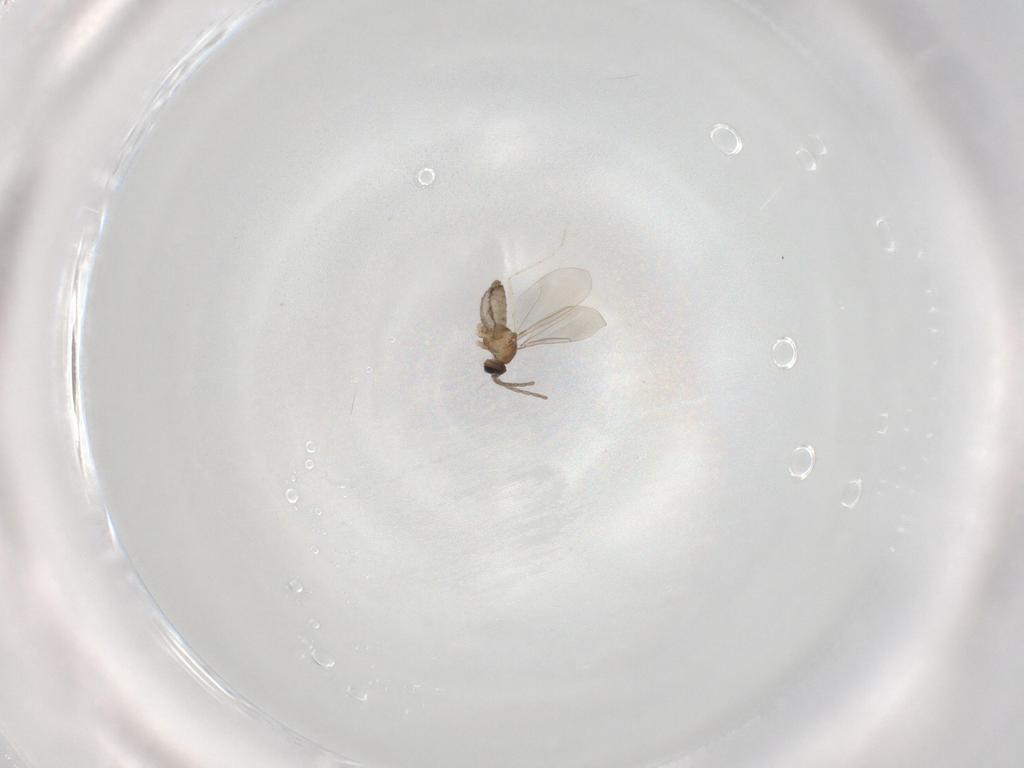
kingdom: Animalia
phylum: Arthropoda
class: Insecta
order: Diptera
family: Cecidomyiidae
